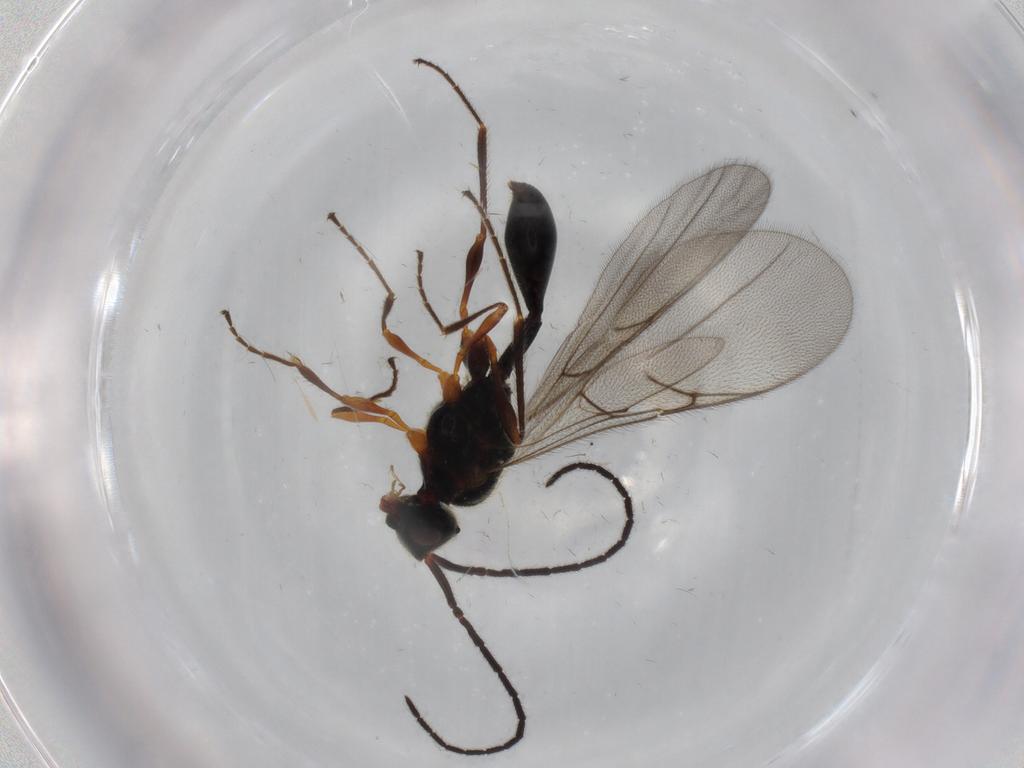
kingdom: Animalia
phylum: Arthropoda
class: Insecta
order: Hymenoptera
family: Diapriidae
